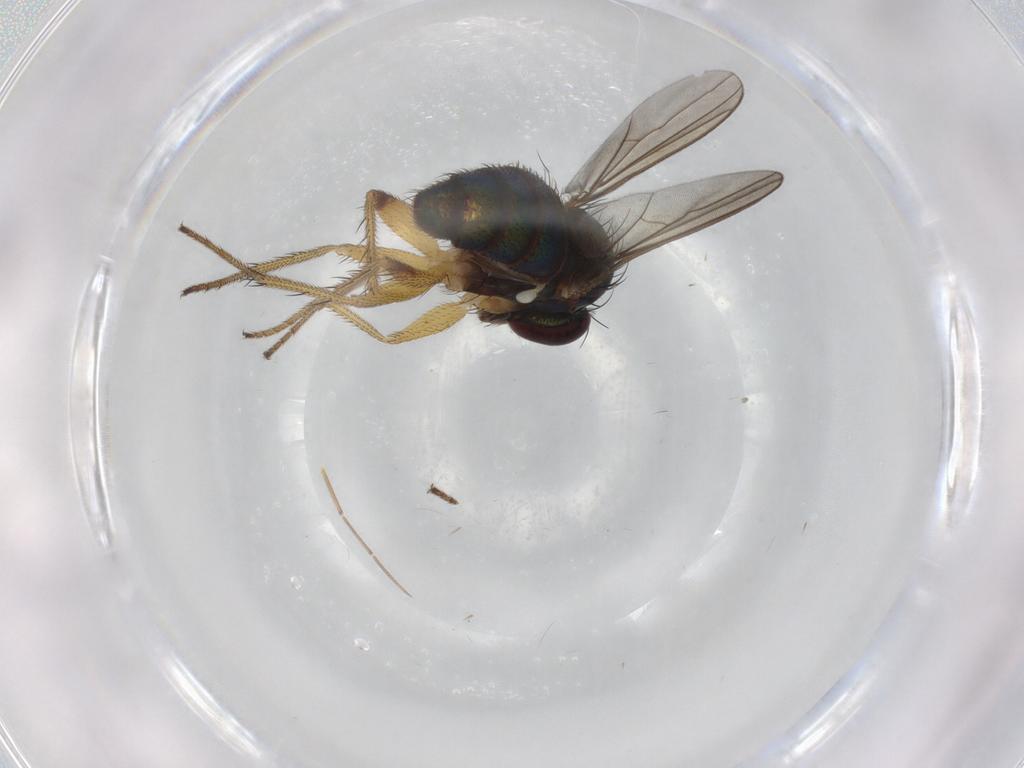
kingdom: Animalia
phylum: Arthropoda
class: Insecta
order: Diptera
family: Dolichopodidae
